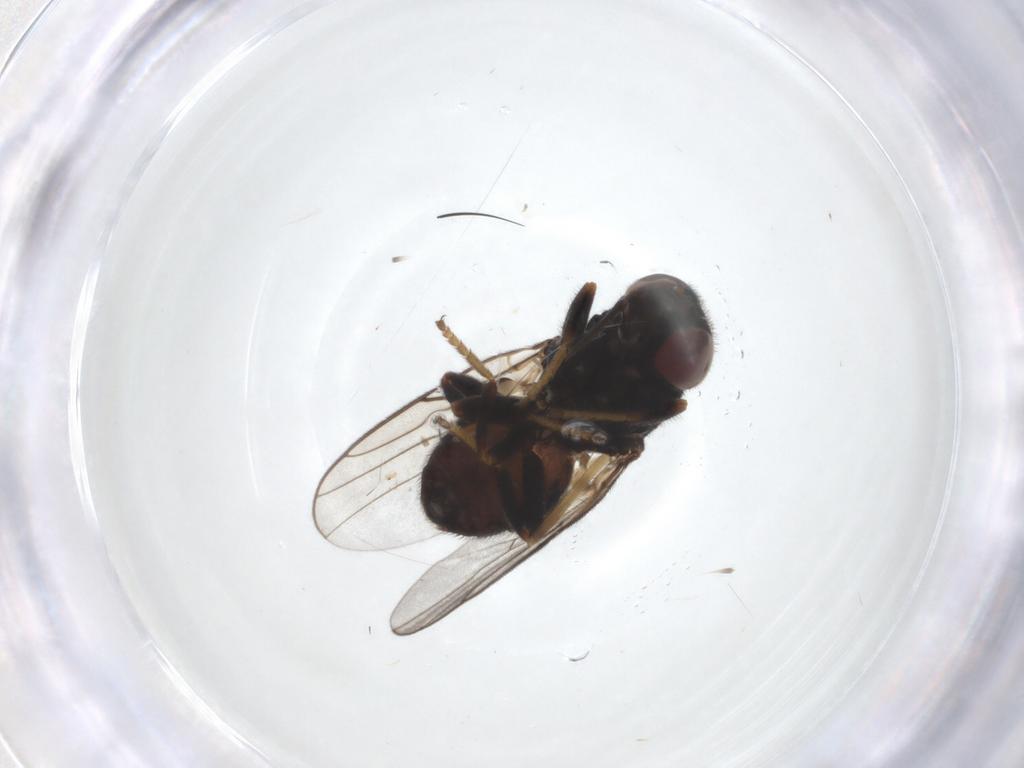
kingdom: Animalia
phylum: Arthropoda
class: Insecta
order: Diptera
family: Chloropidae
